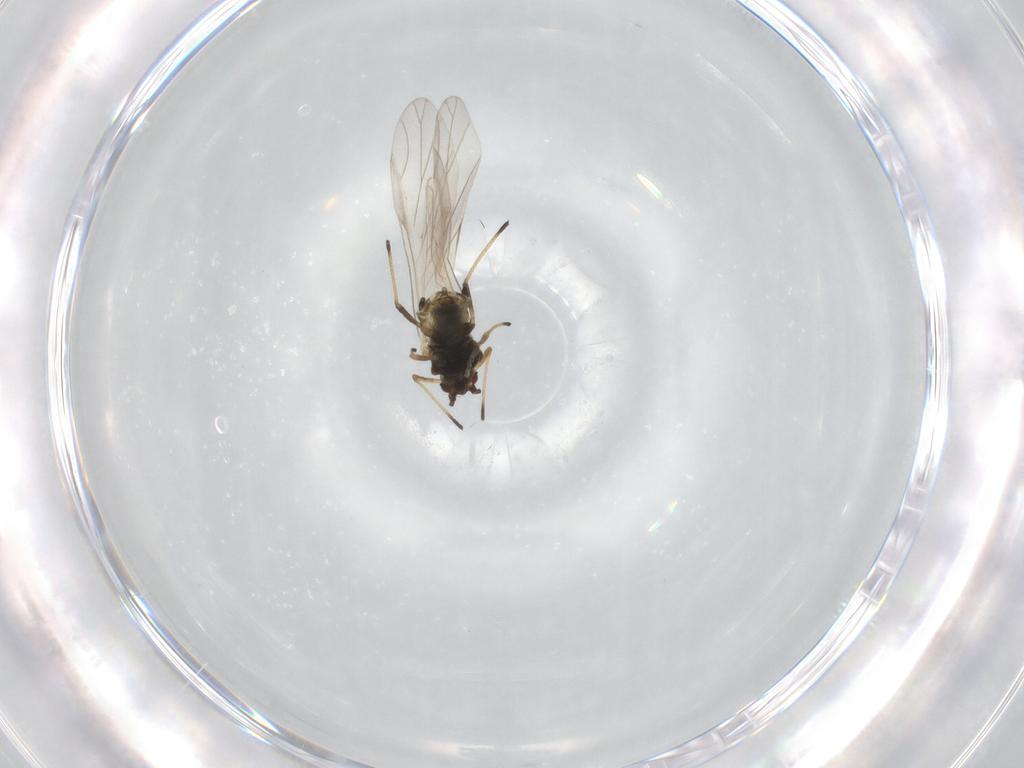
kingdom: Animalia
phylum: Arthropoda
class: Insecta
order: Hemiptera
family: Aphididae
